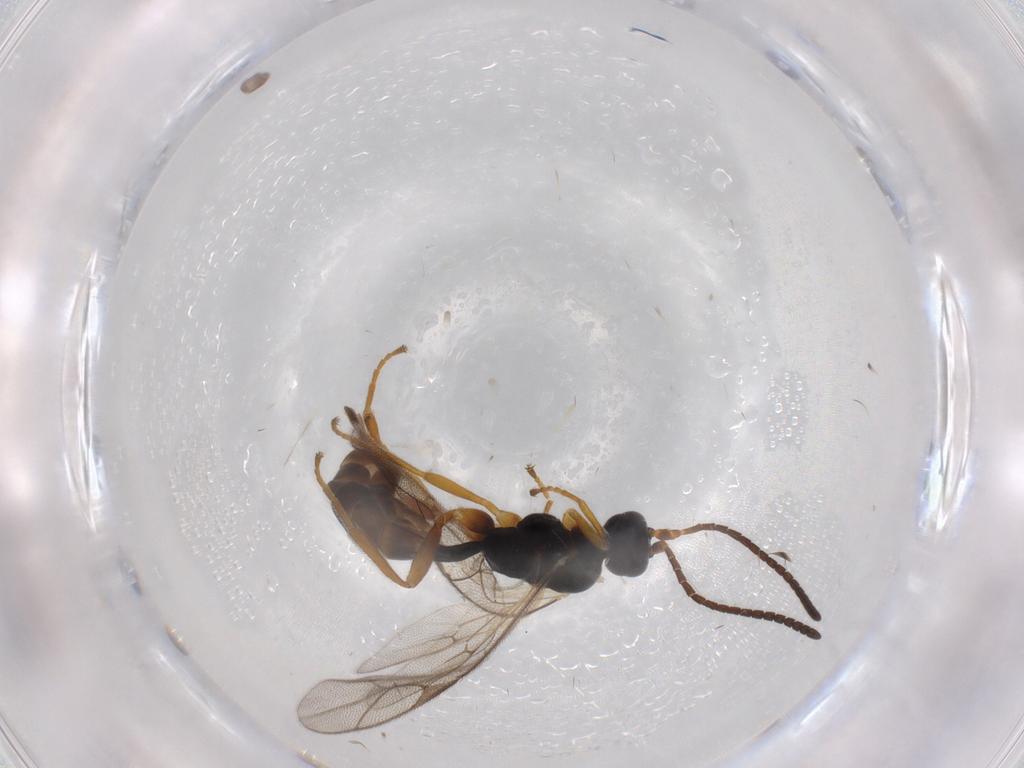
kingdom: Animalia
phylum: Arthropoda
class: Insecta
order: Hymenoptera
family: Ichneumonidae
